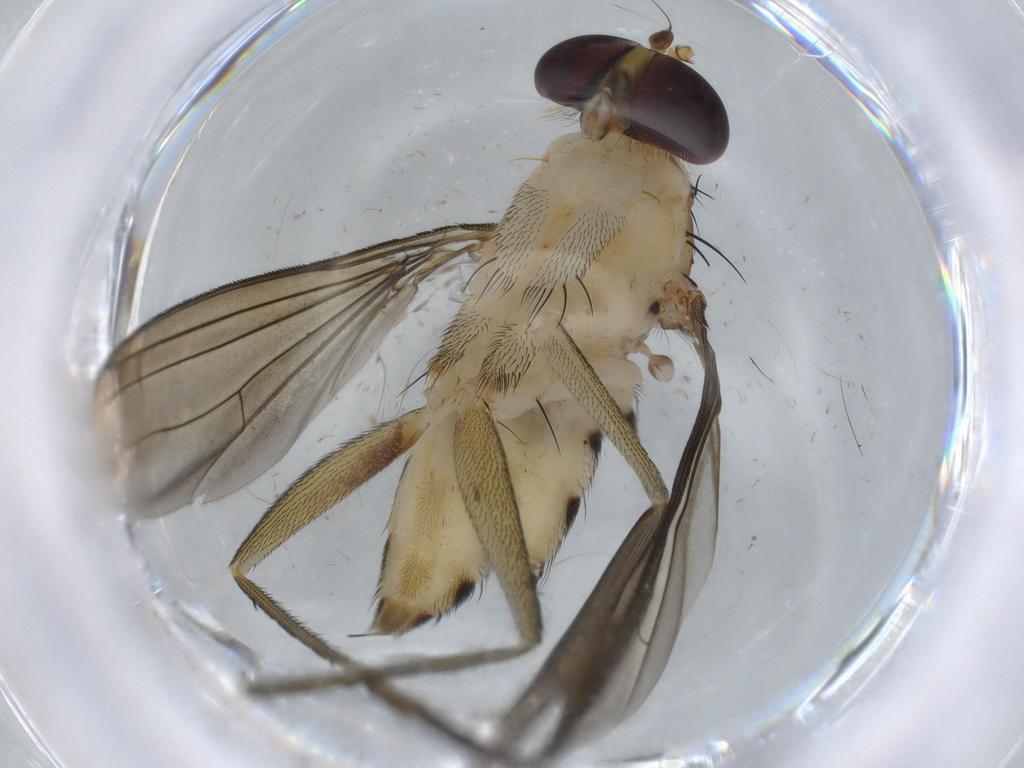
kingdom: Animalia
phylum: Arthropoda
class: Insecta
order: Diptera
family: Dolichopodidae
